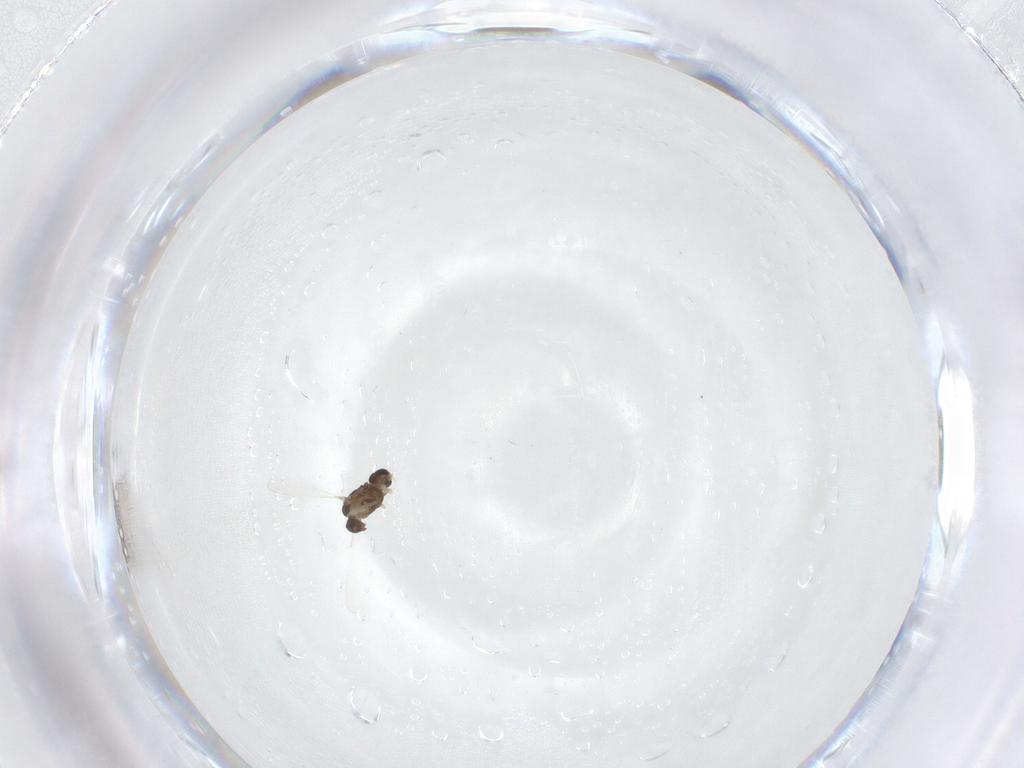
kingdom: Animalia
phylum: Arthropoda
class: Insecta
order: Diptera
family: Chironomidae
